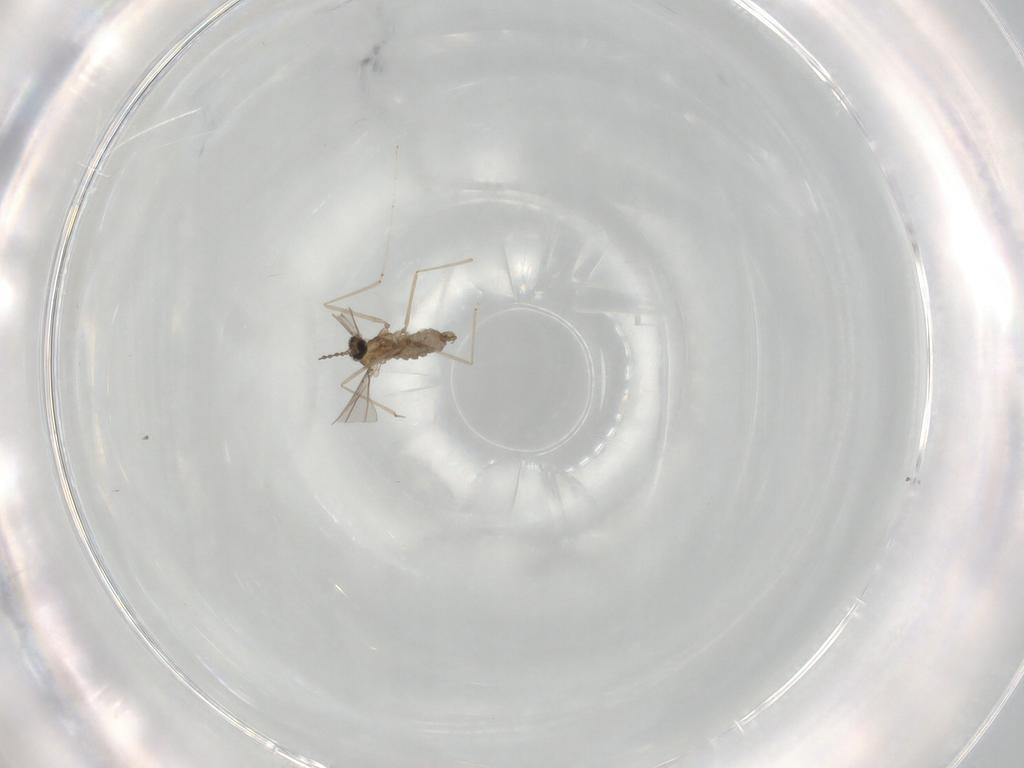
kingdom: Animalia
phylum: Arthropoda
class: Insecta
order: Diptera
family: Cecidomyiidae
